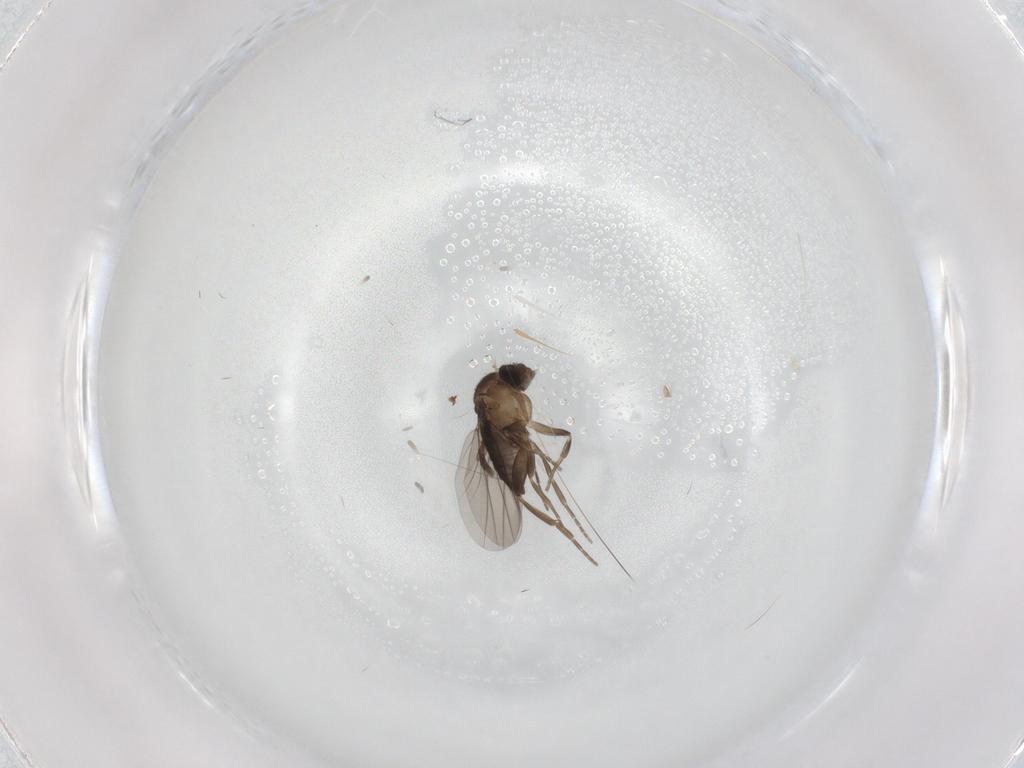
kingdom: Animalia
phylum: Arthropoda
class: Insecta
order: Diptera
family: Phoridae
